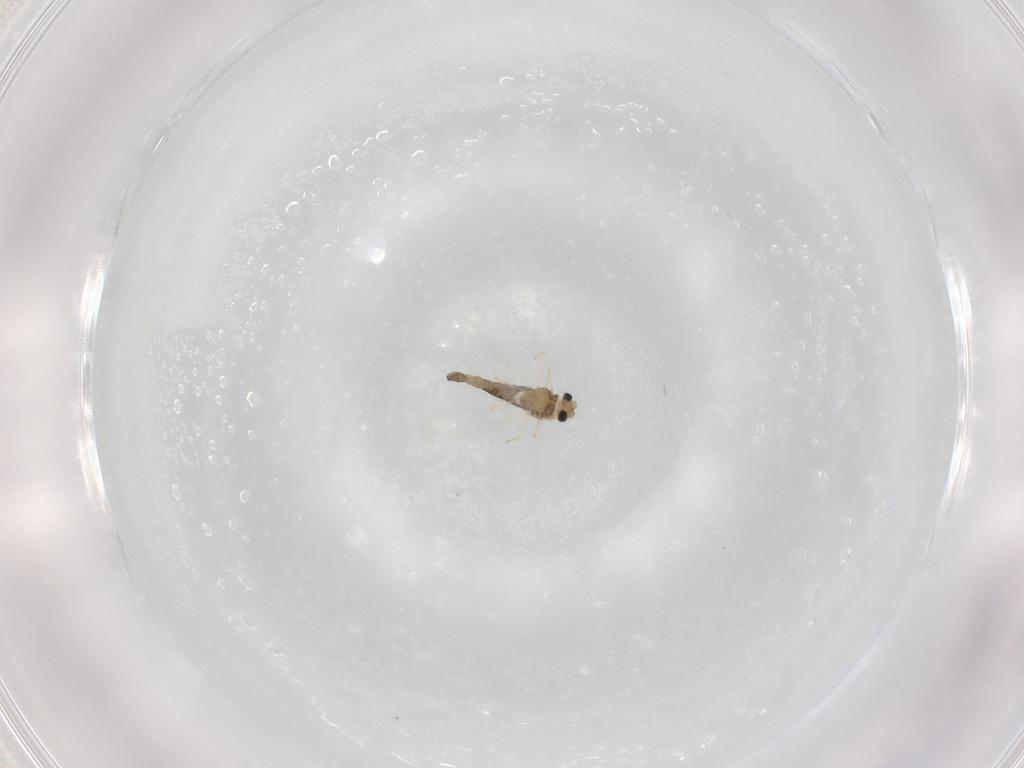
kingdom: Animalia
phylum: Arthropoda
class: Insecta
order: Diptera
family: Chironomidae
